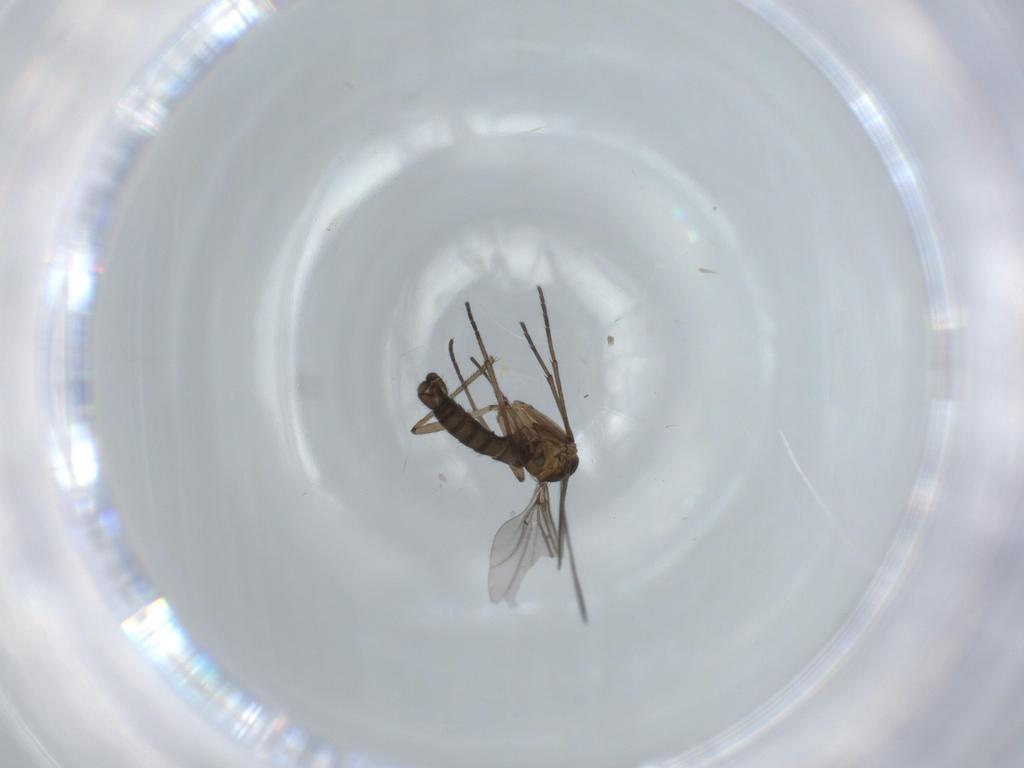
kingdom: Animalia
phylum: Arthropoda
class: Insecta
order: Diptera
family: Sciaridae
